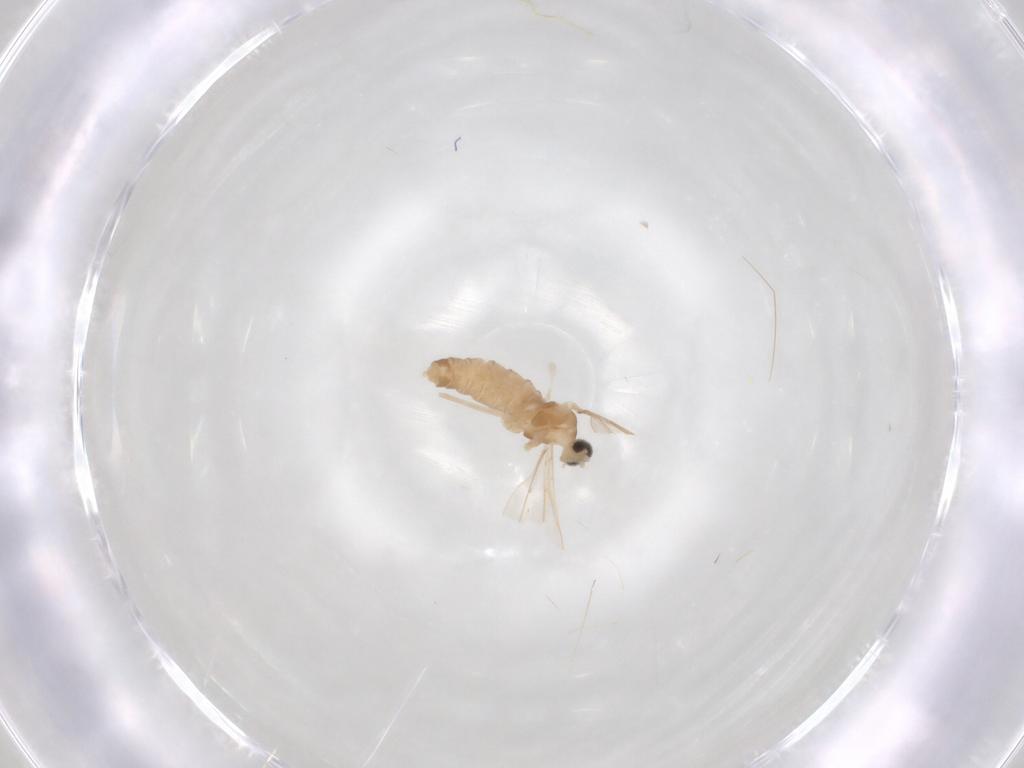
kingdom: Animalia
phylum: Arthropoda
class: Insecta
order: Diptera
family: Cecidomyiidae
